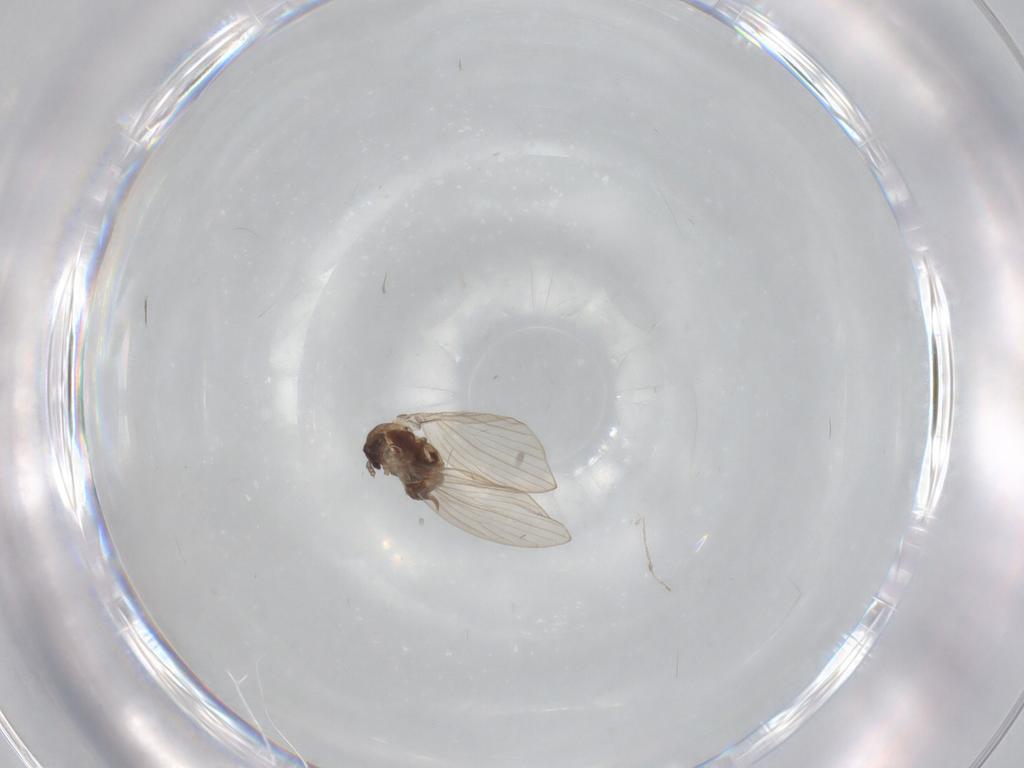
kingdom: Animalia
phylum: Arthropoda
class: Insecta
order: Diptera
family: Psychodidae
